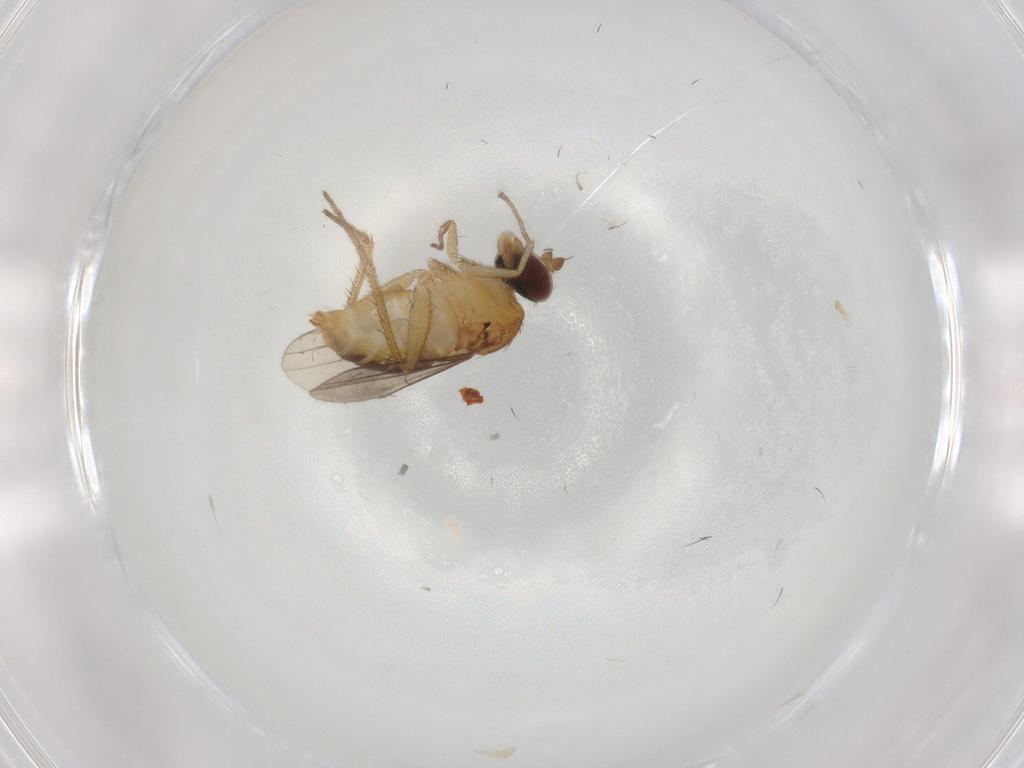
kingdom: Animalia
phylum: Arthropoda
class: Insecta
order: Diptera
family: Dolichopodidae
